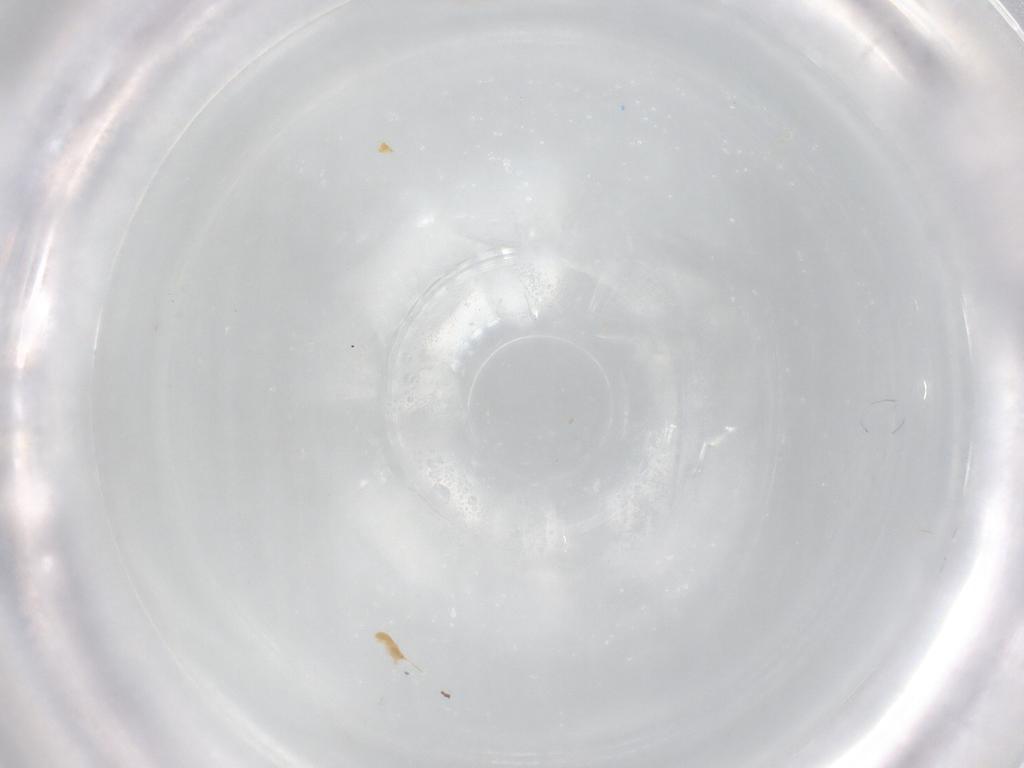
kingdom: Animalia
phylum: Arthropoda
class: Insecta
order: Diptera
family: Cecidomyiidae
